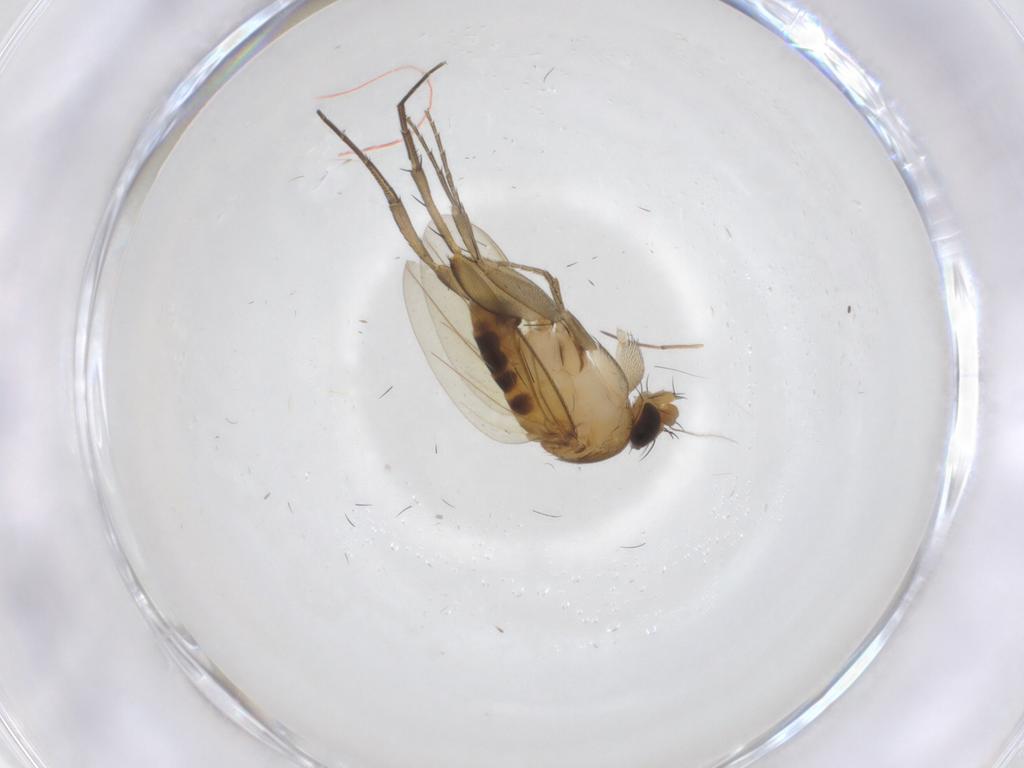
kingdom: Animalia
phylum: Arthropoda
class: Insecta
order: Diptera
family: Phoridae
